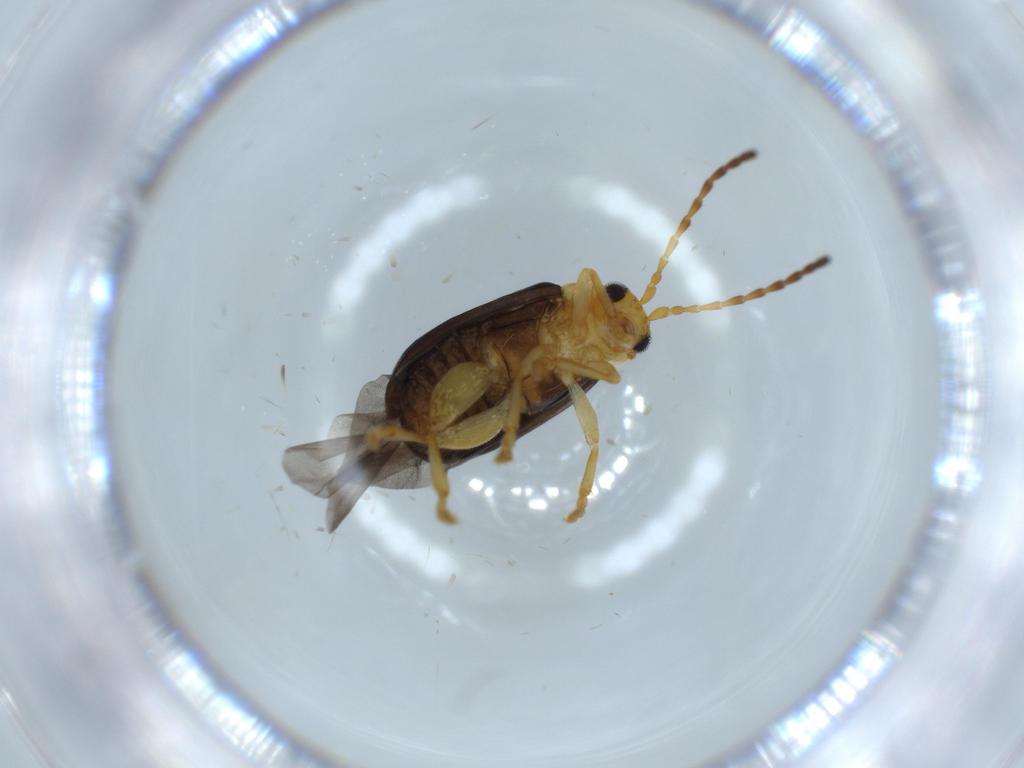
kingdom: Animalia
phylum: Arthropoda
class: Insecta
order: Coleoptera
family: Chrysomelidae
